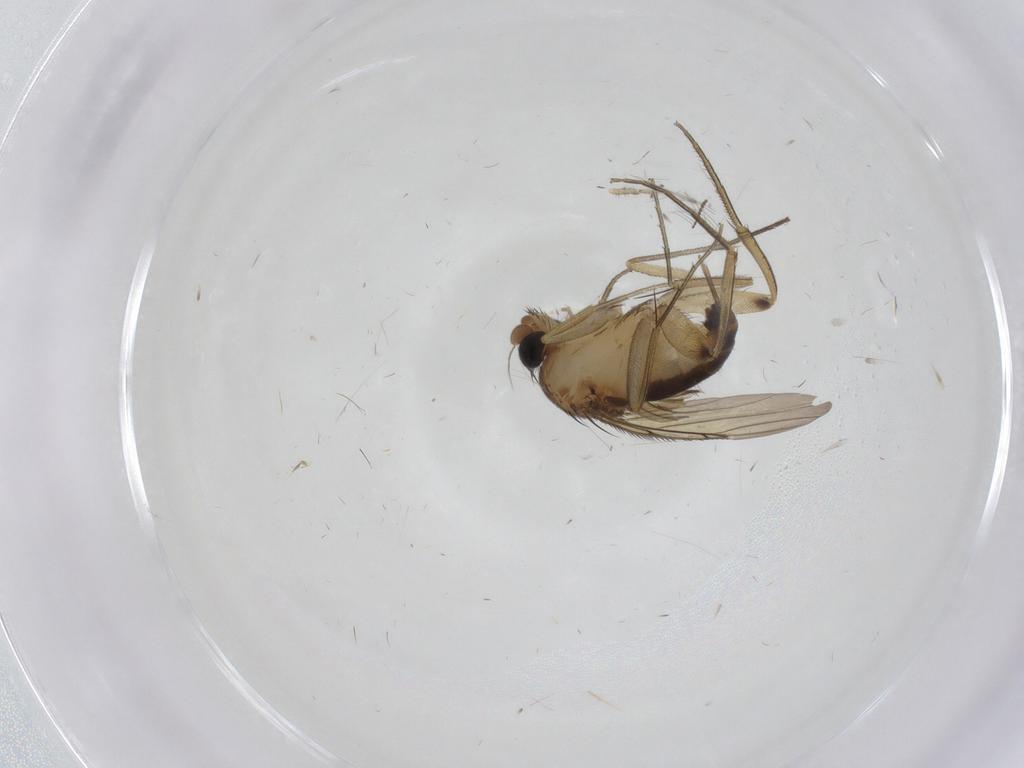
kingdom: Animalia
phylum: Arthropoda
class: Insecta
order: Diptera
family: Phoridae
